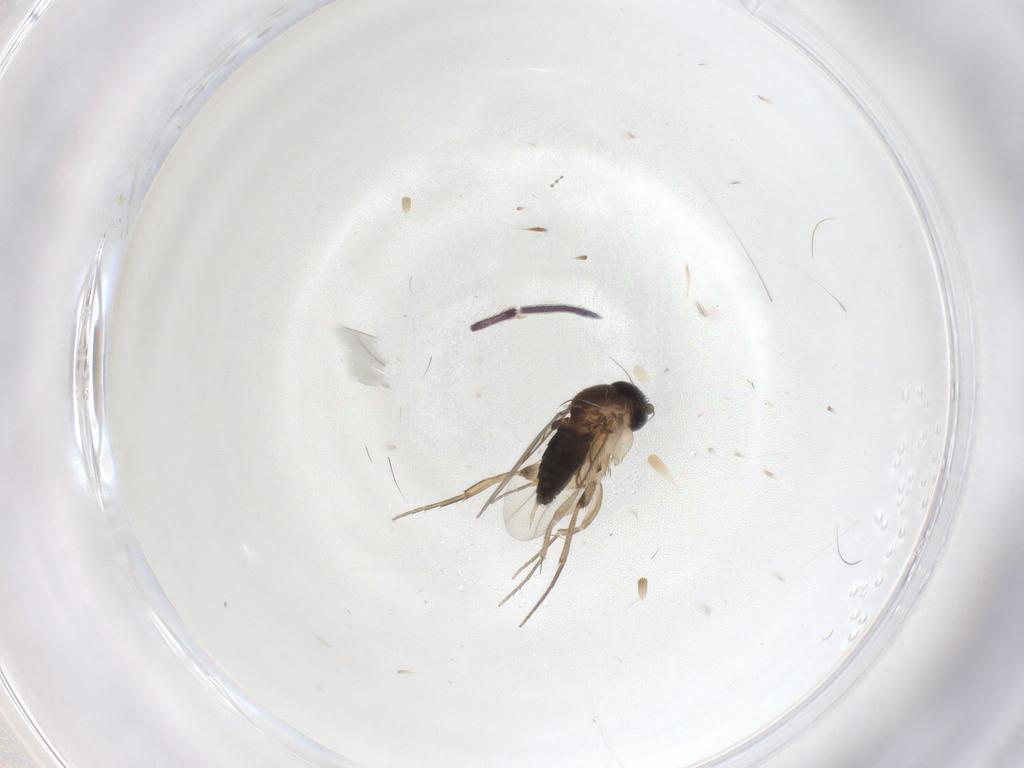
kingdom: Animalia
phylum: Arthropoda
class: Insecta
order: Diptera
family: Phoridae
